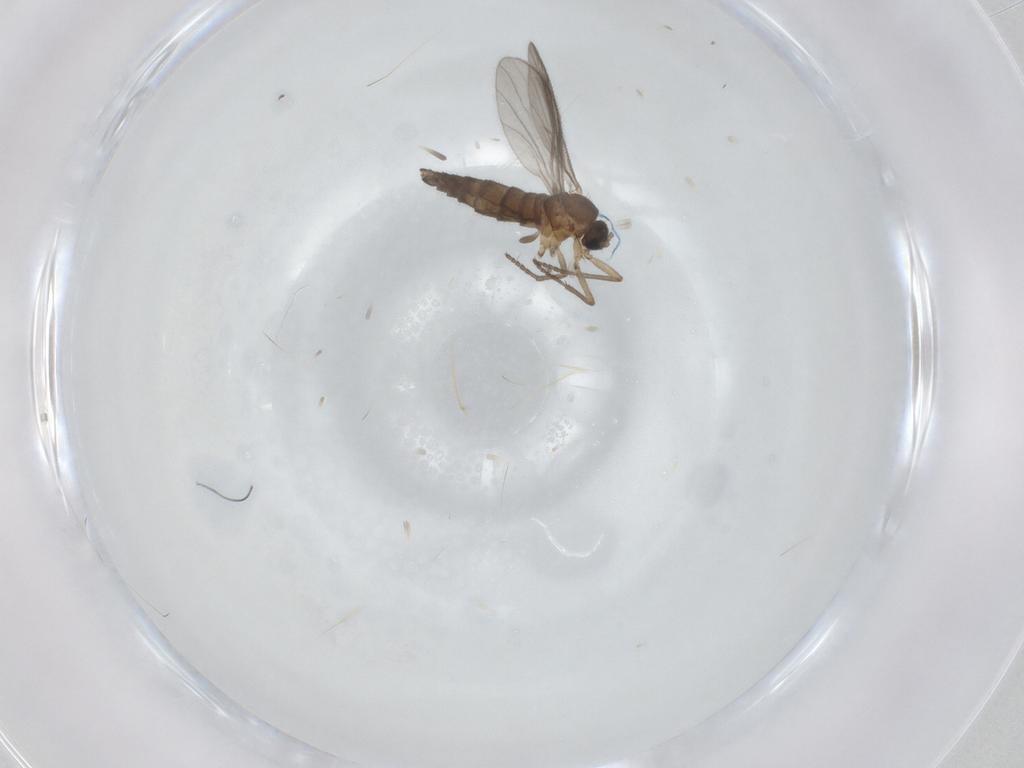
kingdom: Animalia
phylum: Arthropoda
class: Insecta
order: Diptera
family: Sciaridae
